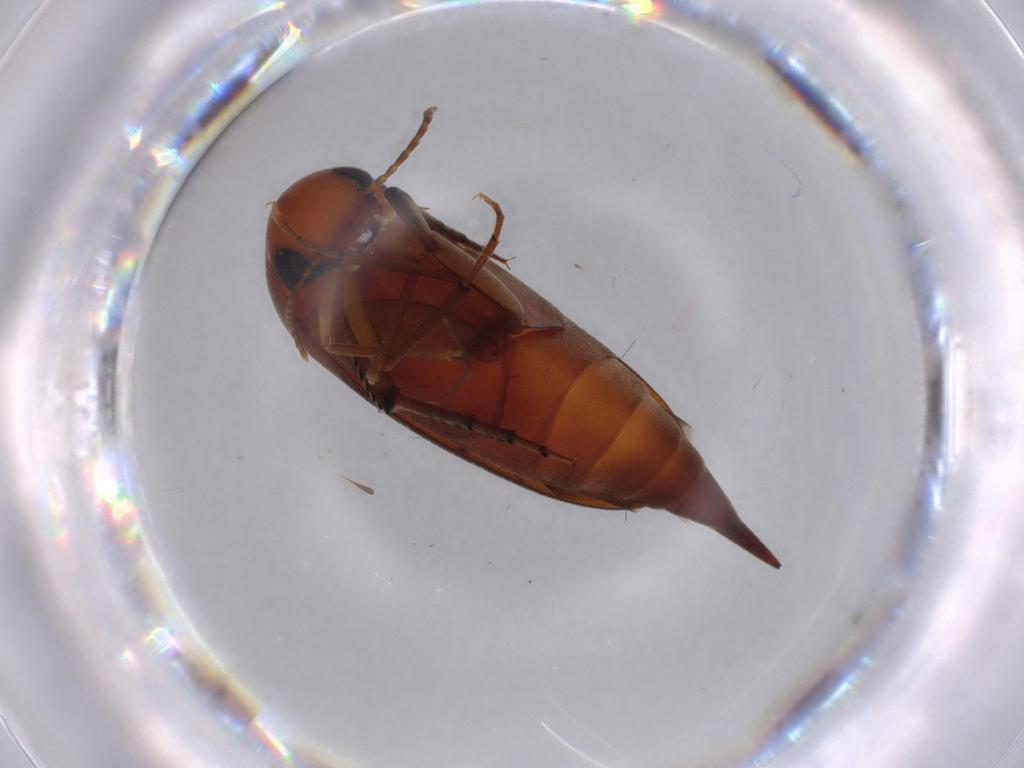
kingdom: Animalia
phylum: Arthropoda
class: Insecta
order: Coleoptera
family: Mordellidae
